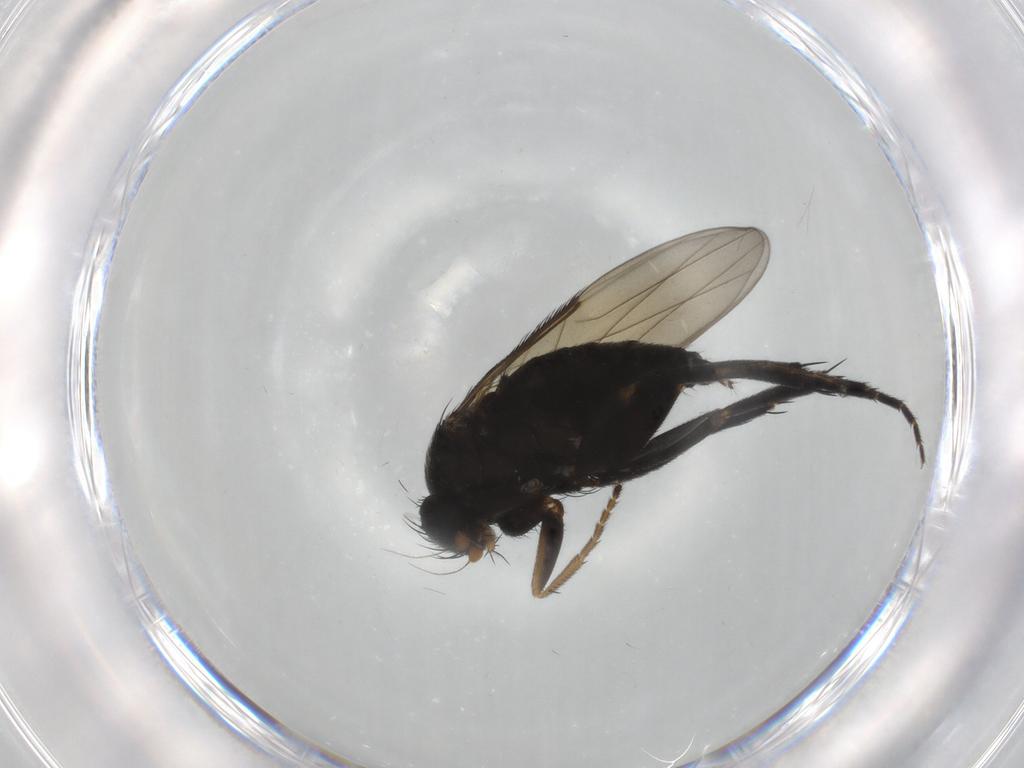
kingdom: Animalia
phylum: Arthropoda
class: Insecta
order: Diptera
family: Phoridae
